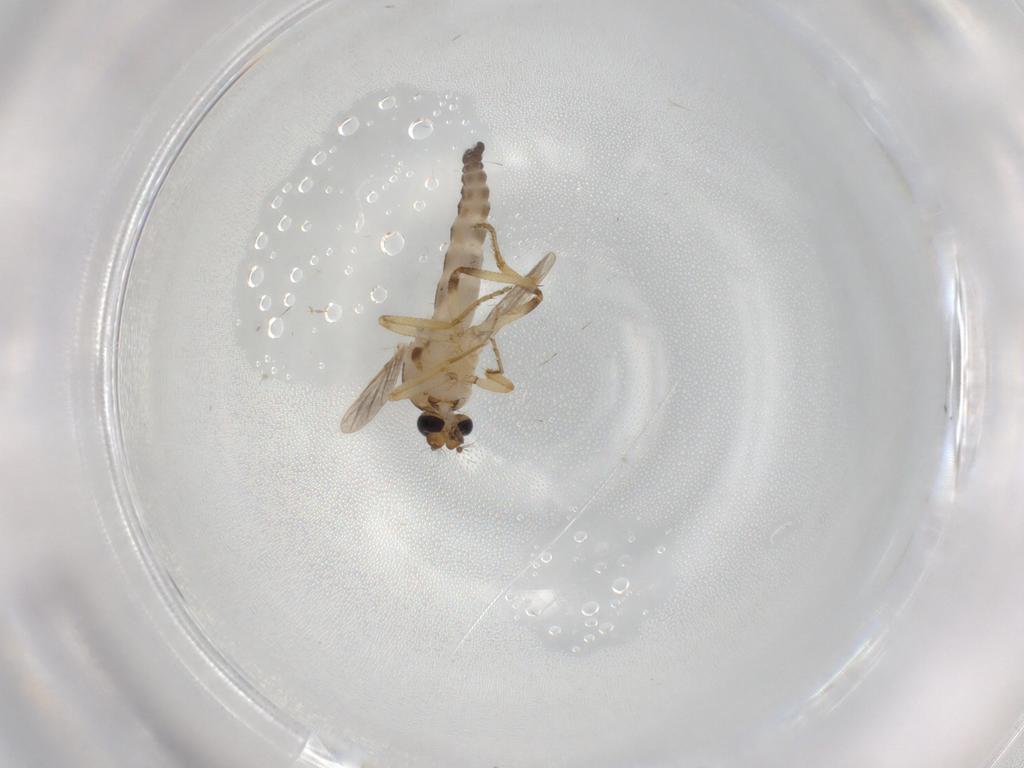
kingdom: Animalia
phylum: Arthropoda
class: Insecta
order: Diptera
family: Ceratopogonidae
